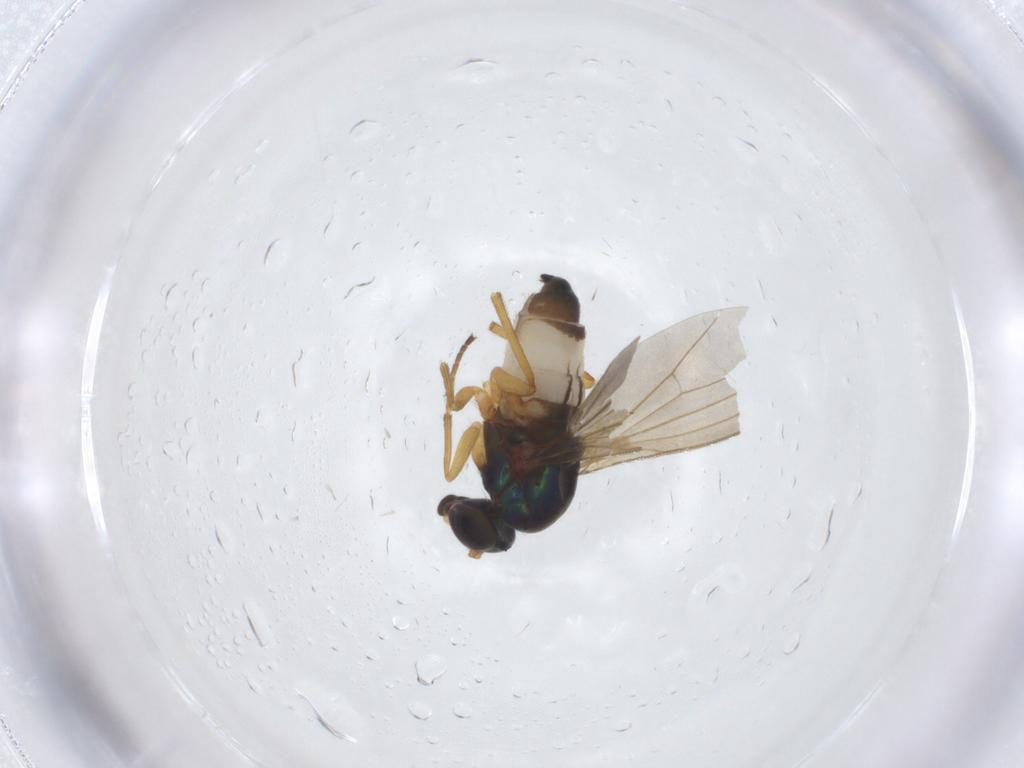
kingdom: Animalia
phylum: Arthropoda
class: Insecta
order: Diptera
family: Dolichopodidae
